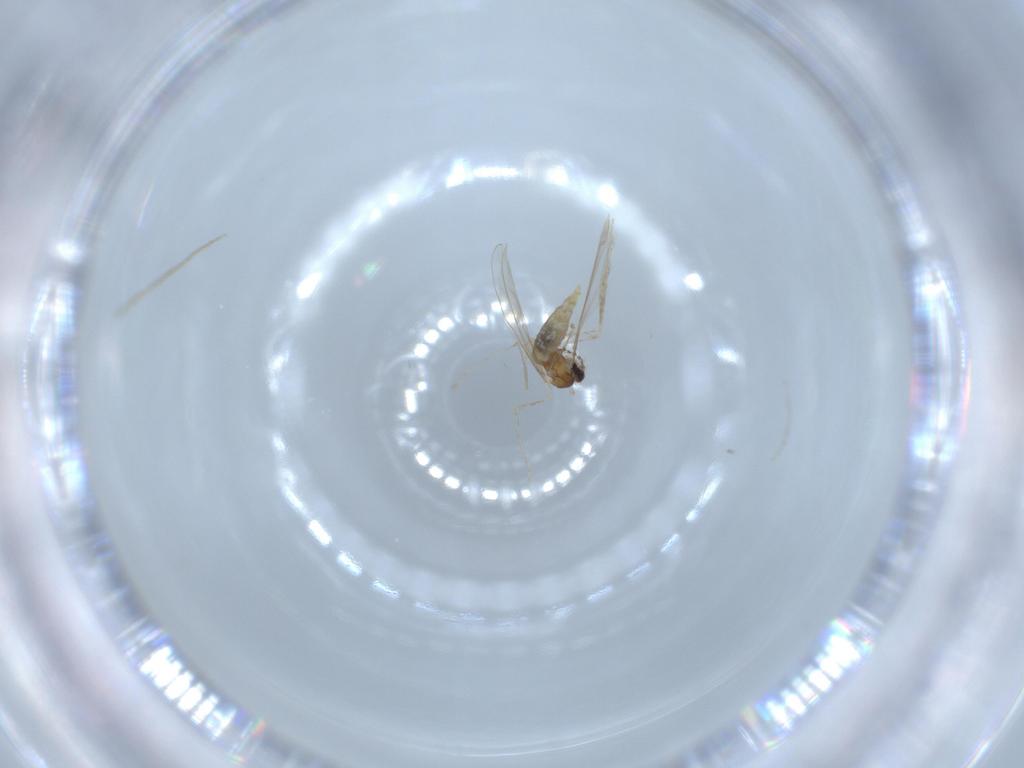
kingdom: Animalia
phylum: Arthropoda
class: Insecta
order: Diptera
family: Cecidomyiidae
